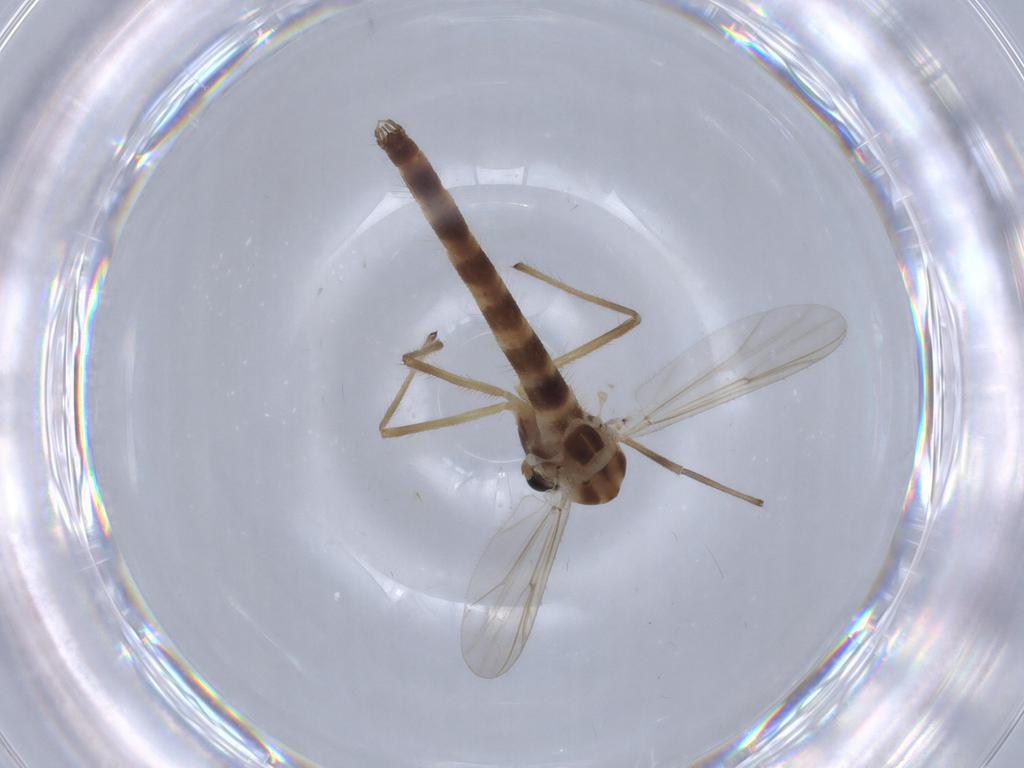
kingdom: Animalia
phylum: Arthropoda
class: Insecta
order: Diptera
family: Chironomidae
